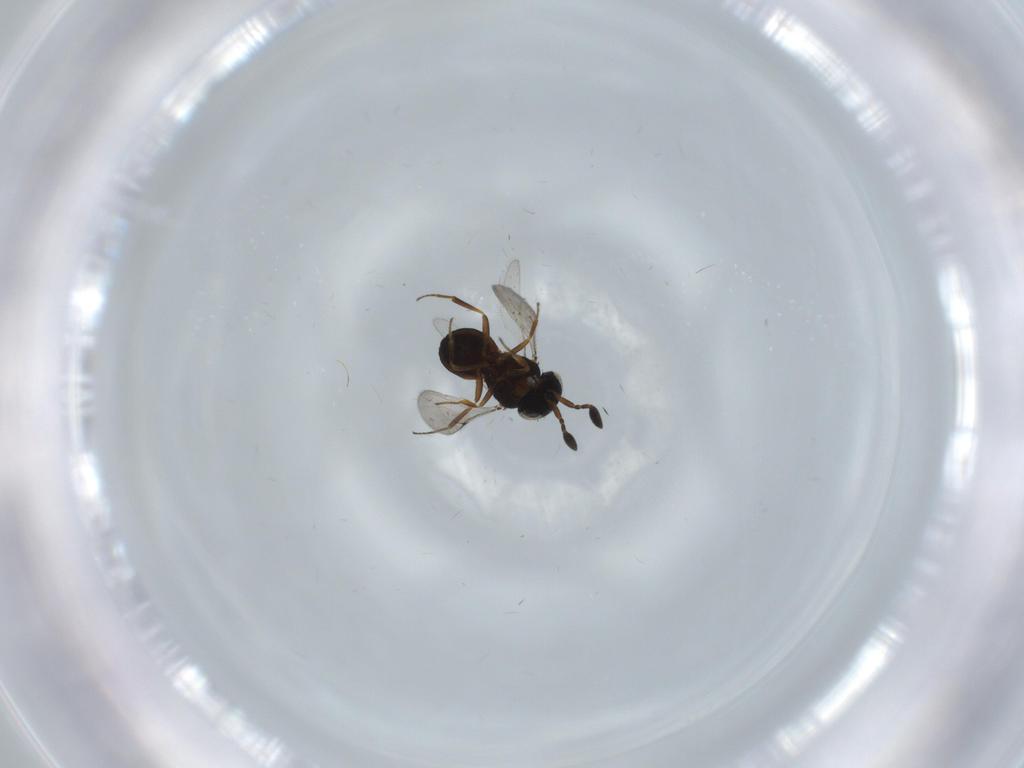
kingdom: Animalia
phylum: Arthropoda
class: Insecta
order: Hymenoptera
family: Scelionidae
